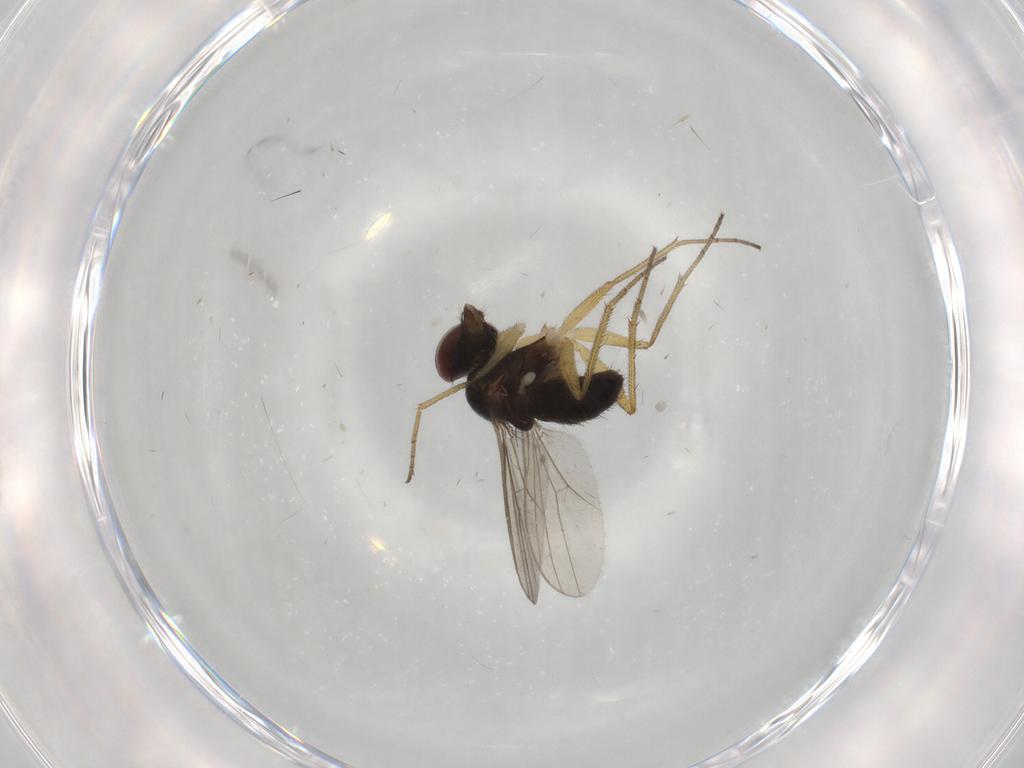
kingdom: Animalia
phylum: Arthropoda
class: Insecta
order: Diptera
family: Dolichopodidae
